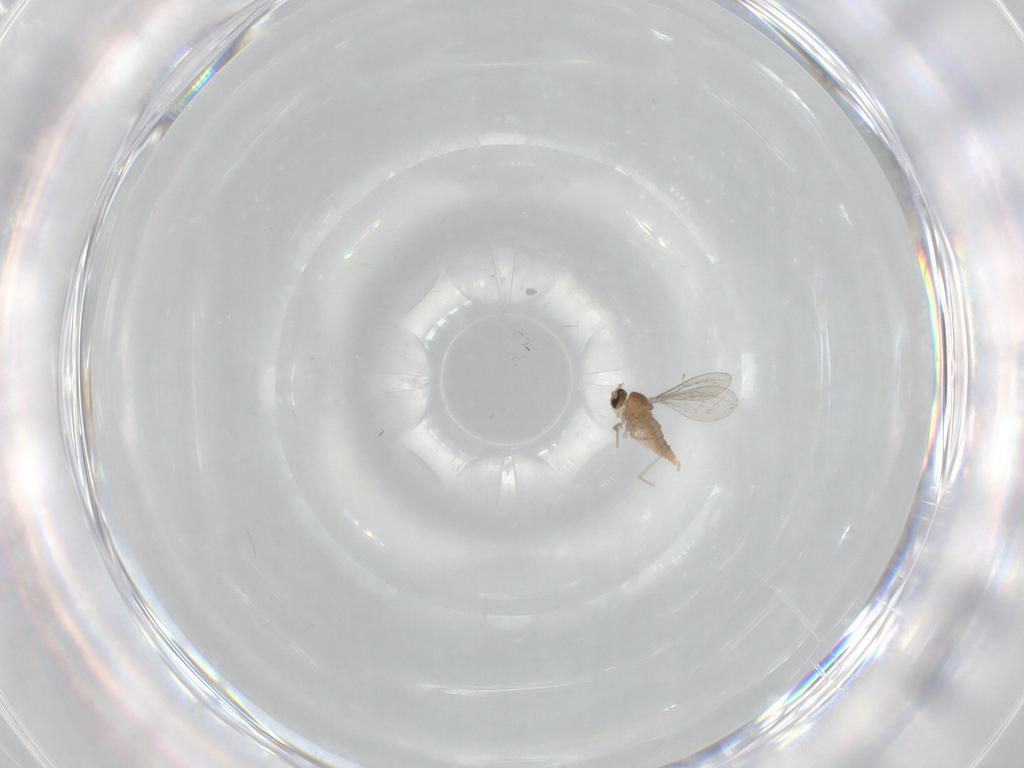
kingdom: Animalia
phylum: Arthropoda
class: Insecta
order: Diptera
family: Cecidomyiidae
